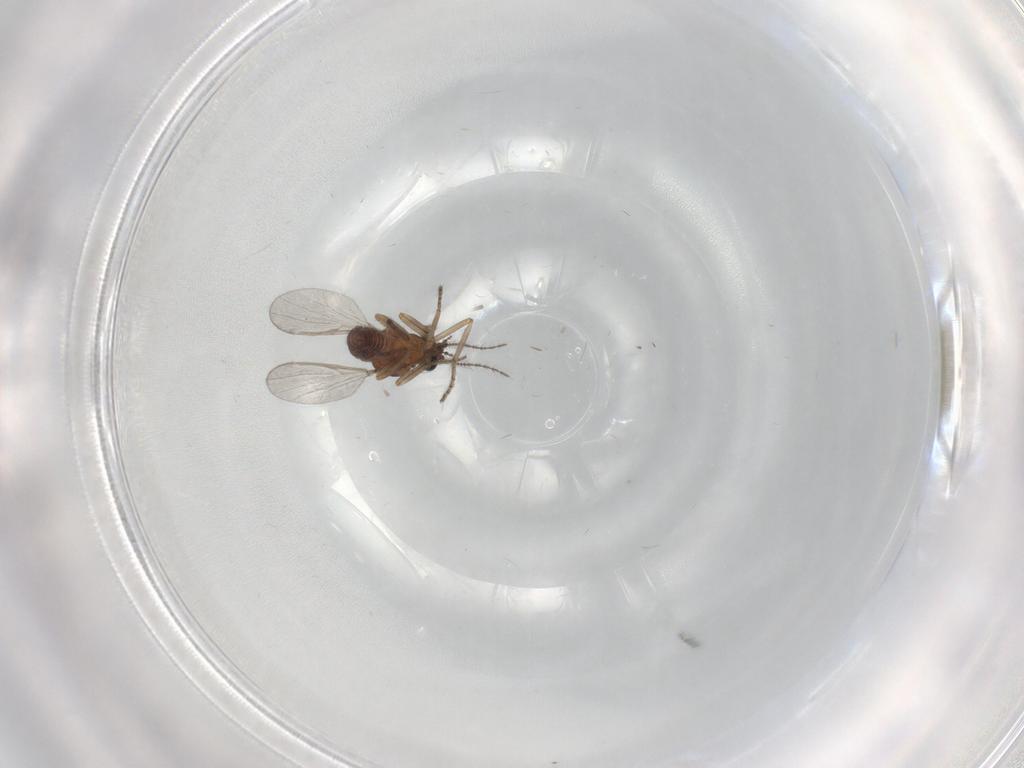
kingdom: Animalia
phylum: Arthropoda
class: Insecta
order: Diptera
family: Ceratopogonidae
